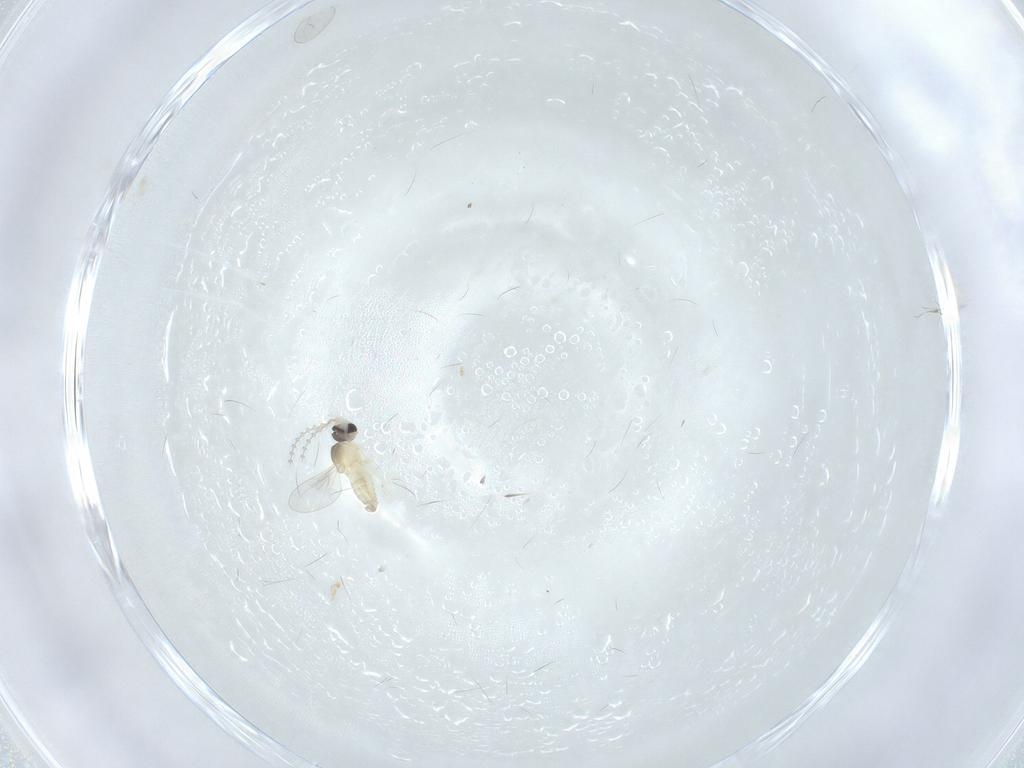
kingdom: Animalia
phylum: Arthropoda
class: Insecta
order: Diptera
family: Cecidomyiidae
